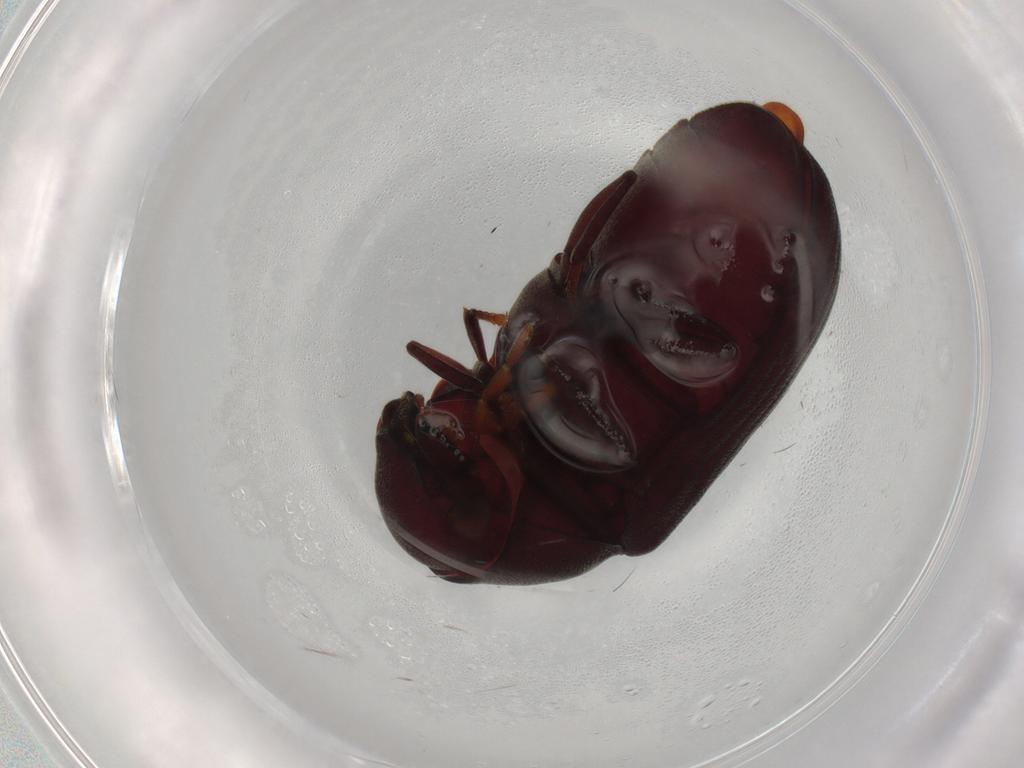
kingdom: Animalia
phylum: Arthropoda
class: Insecta
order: Coleoptera
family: Ptinidae
